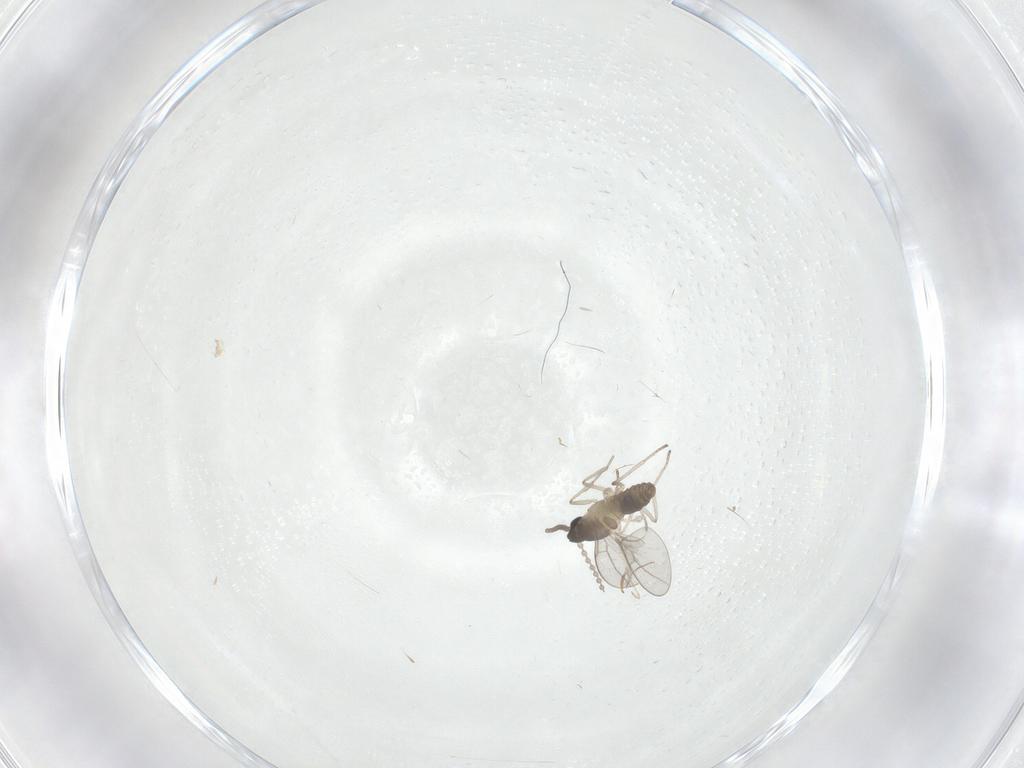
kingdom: Animalia
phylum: Arthropoda
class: Insecta
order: Diptera
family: Cecidomyiidae
